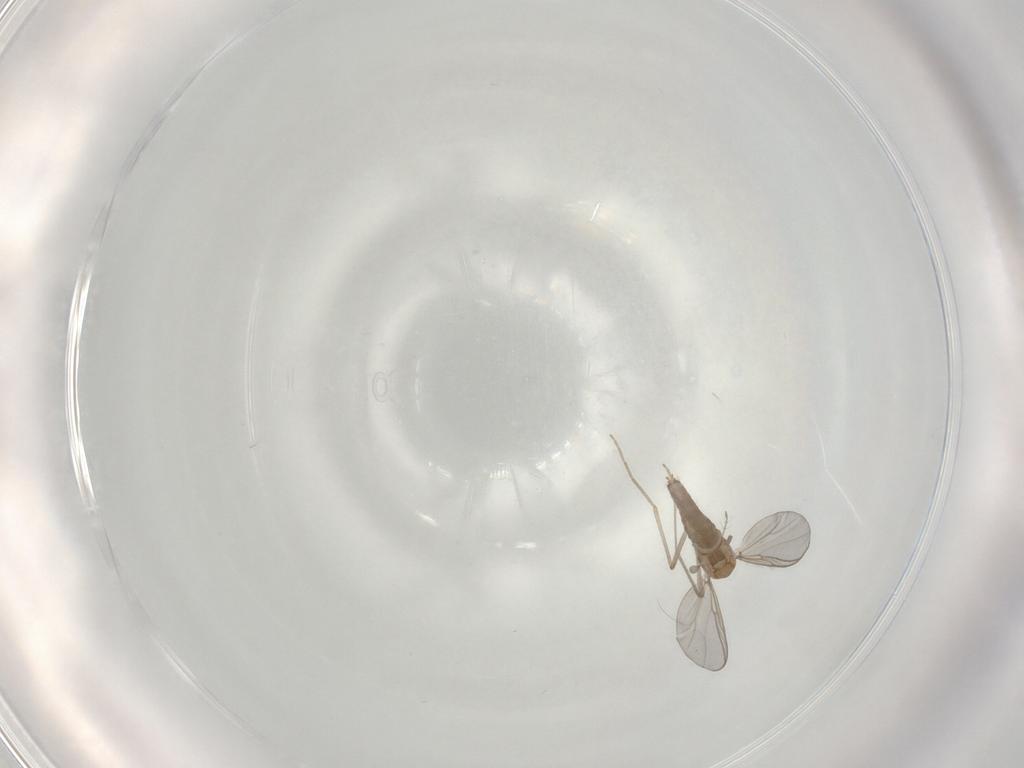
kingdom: Animalia
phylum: Arthropoda
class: Insecta
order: Diptera
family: Chironomidae
